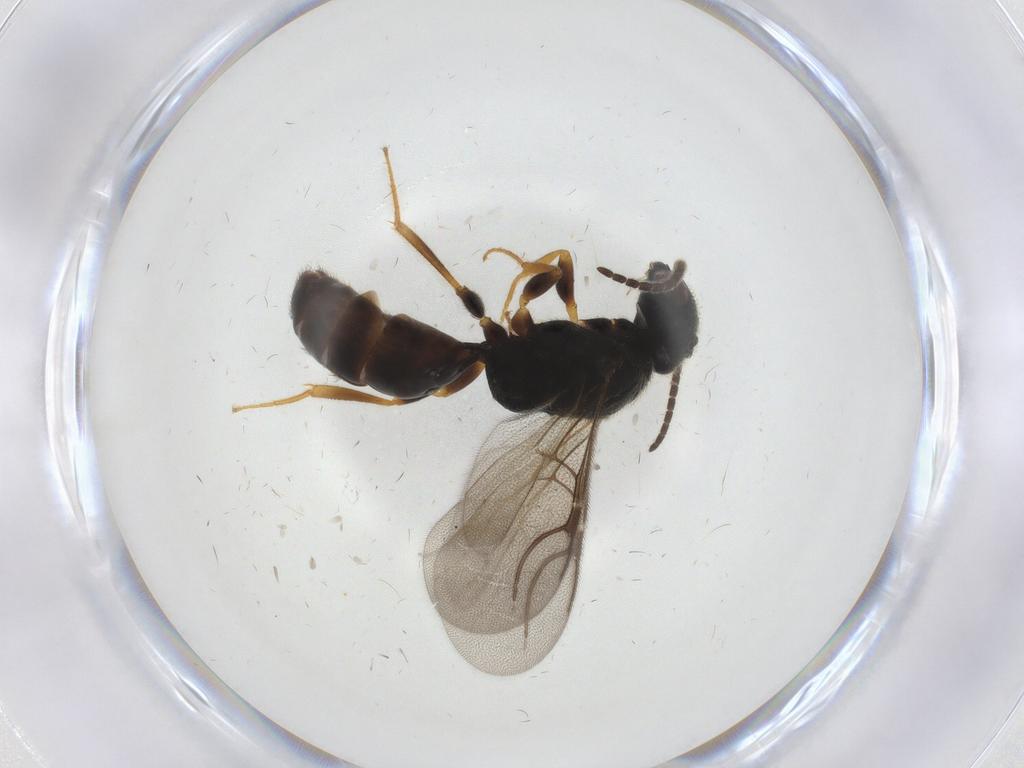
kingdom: Animalia
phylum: Arthropoda
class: Insecta
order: Hymenoptera
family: Bethylidae
